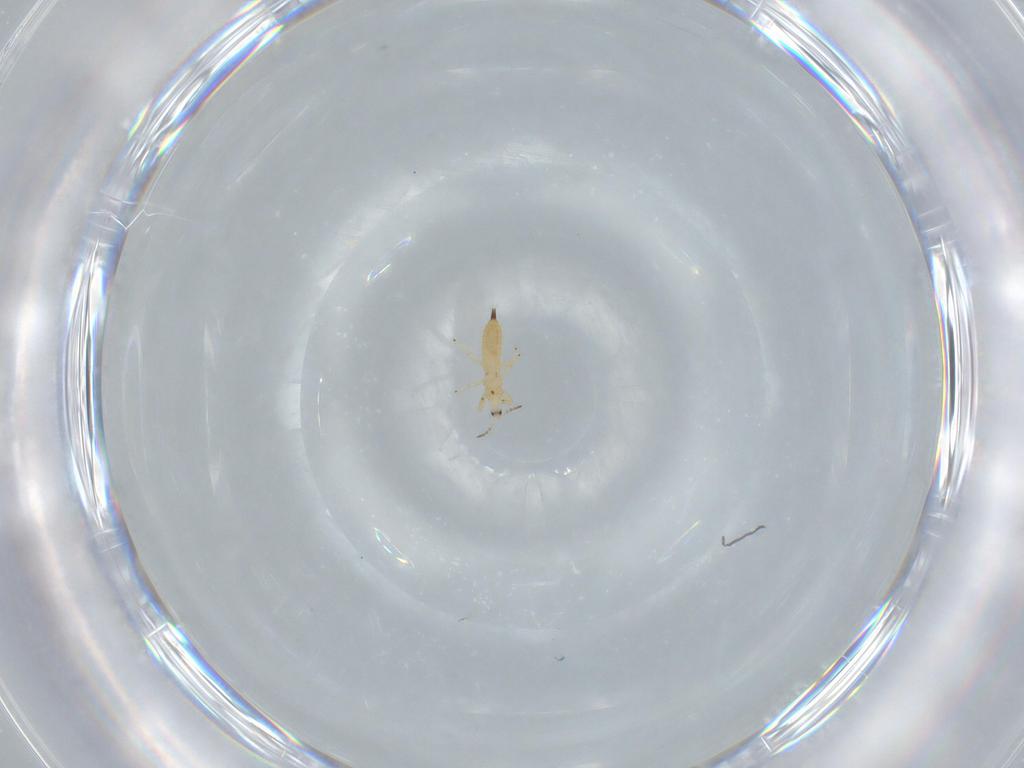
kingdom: Animalia
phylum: Arthropoda
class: Insecta
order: Thysanoptera
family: Phlaeothripidae
